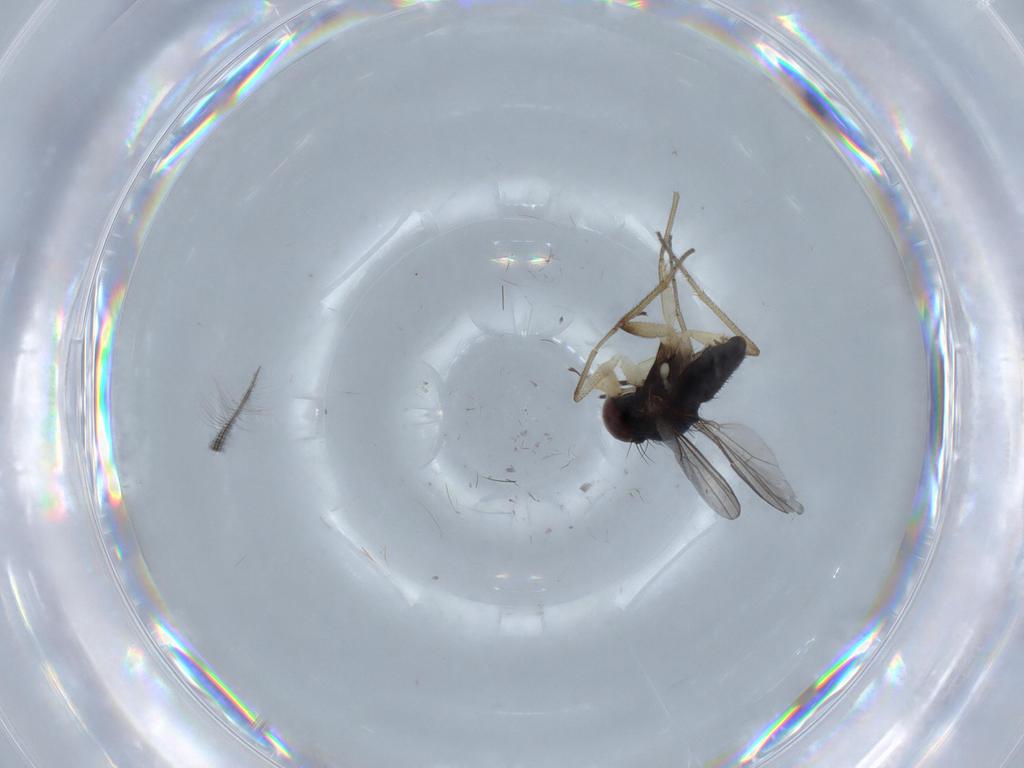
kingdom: Animalia
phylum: Arthropoda
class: Insecta
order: Diptera
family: Dolichopodidae
